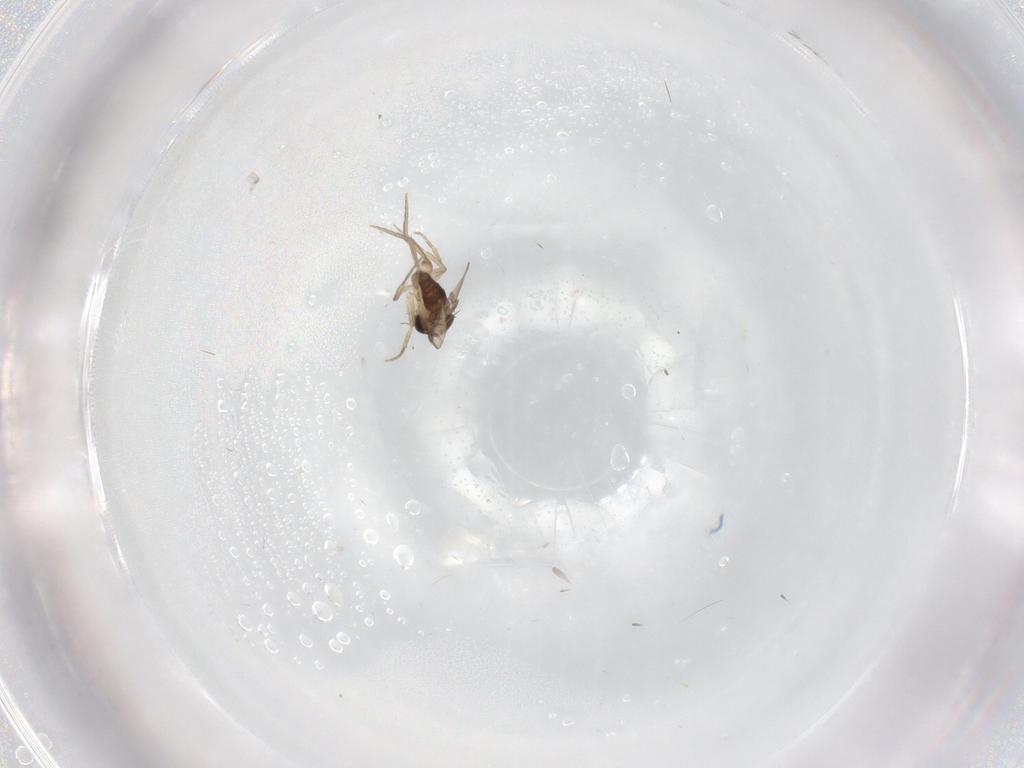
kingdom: Animalia
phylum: Arthropoda
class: Insecta
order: Diptera
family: Phoridae
